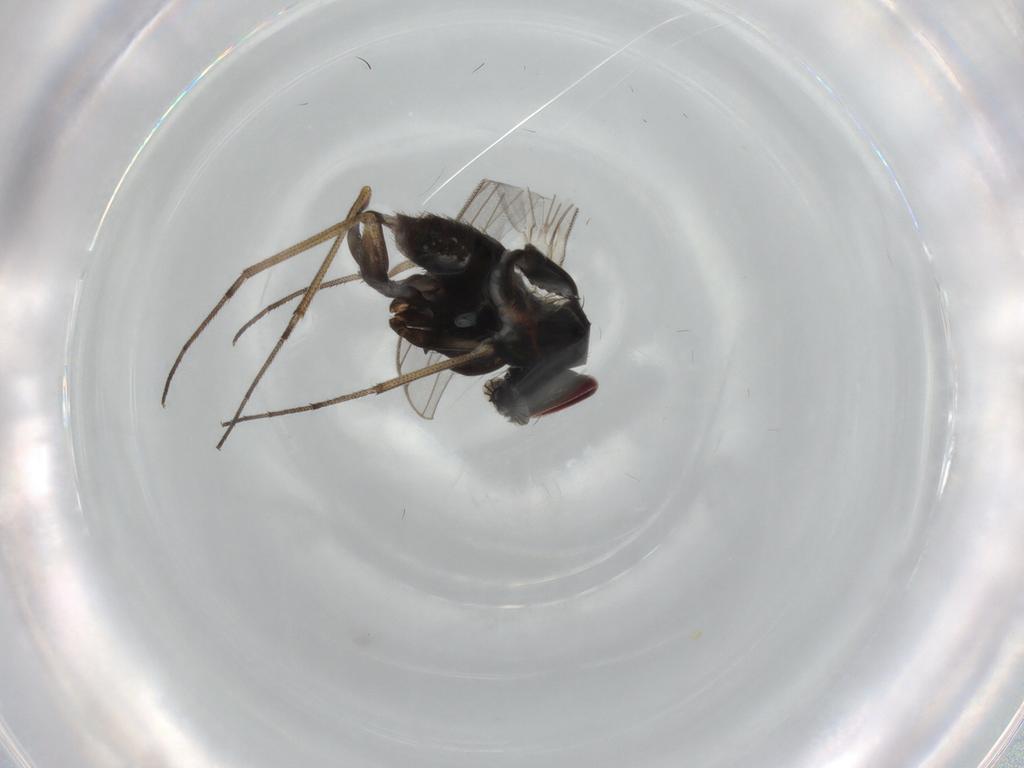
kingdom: Animalia
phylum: Arthropoda
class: Insecta
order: Diptera
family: Dolichopodidae
